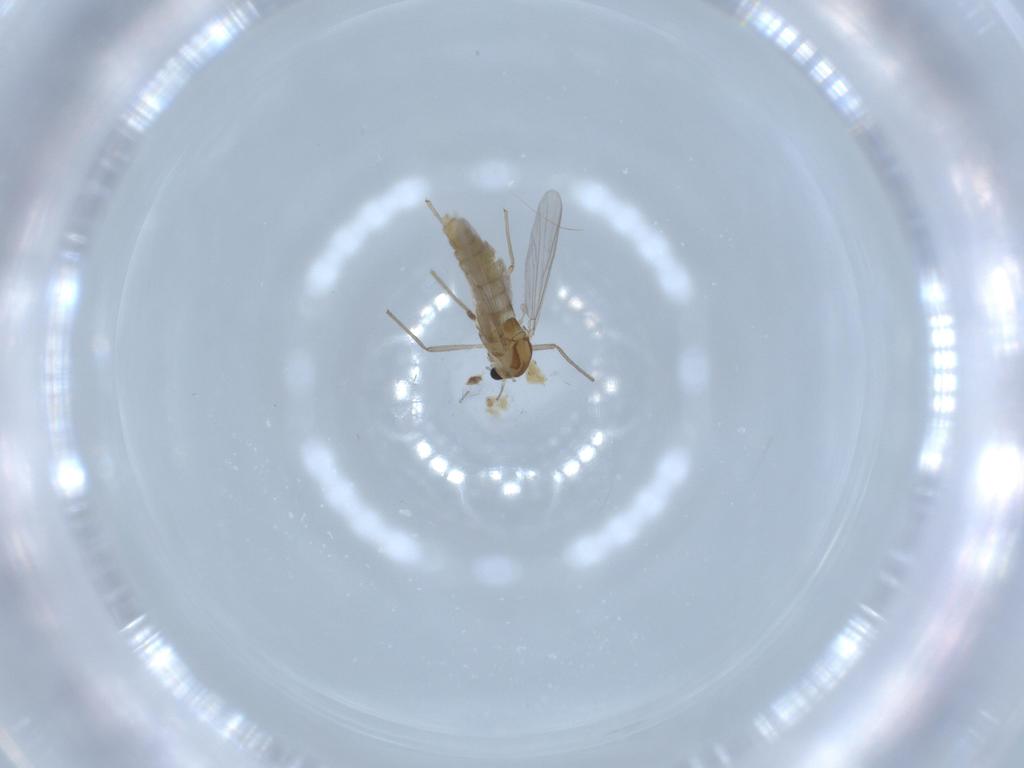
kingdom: Animalia
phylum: Arthropoda
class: Insecta
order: Diptera
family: Chironomidae
